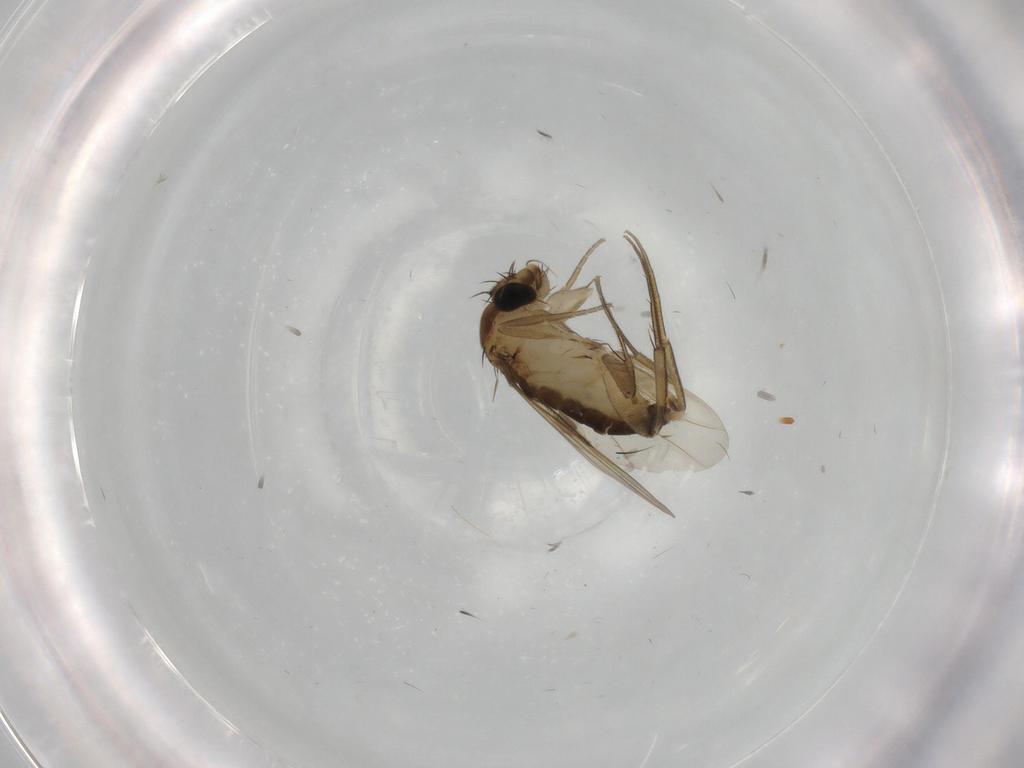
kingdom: Animalia
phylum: Arthropoda
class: Insecta
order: Diptera
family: Phoridae
